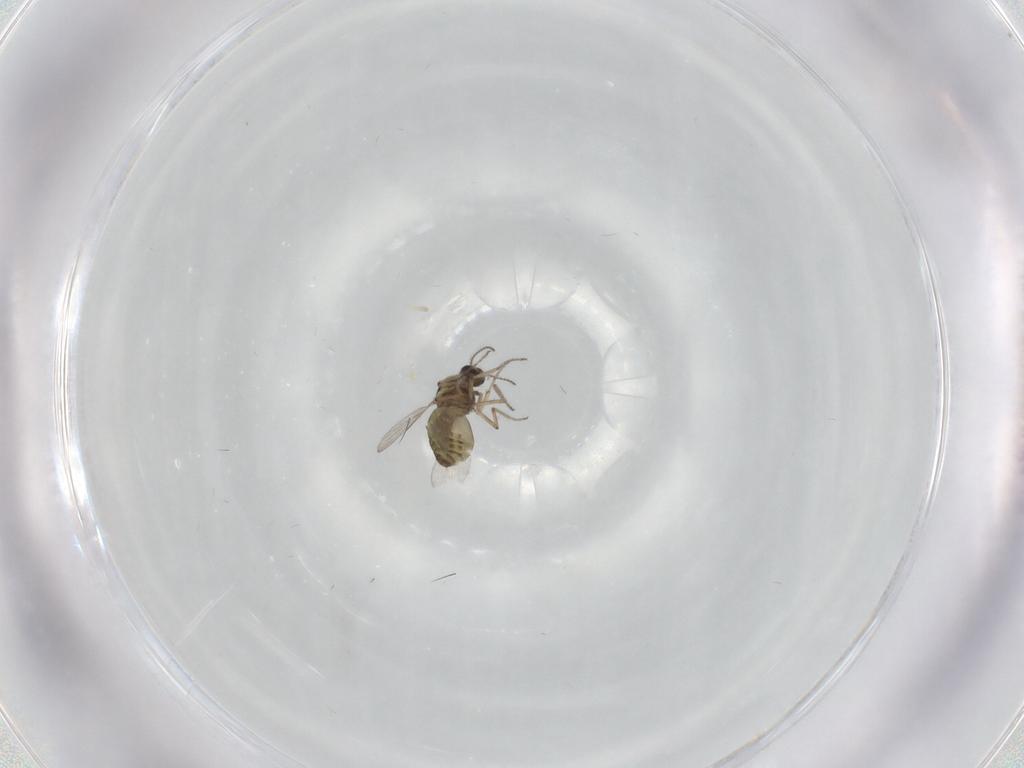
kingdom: Animalia
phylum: Arthropoda
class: Insecta
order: Diptera
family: Ceratopogonidae
